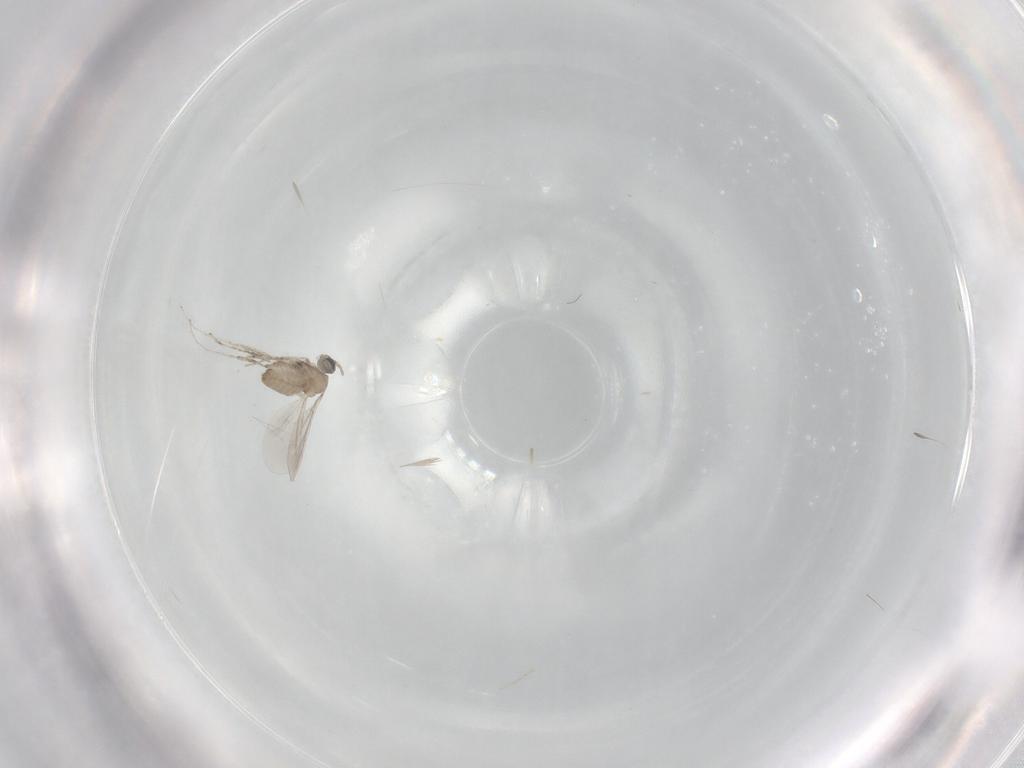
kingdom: Animalia
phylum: Arthropoda
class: Insecta
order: Diptera
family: Cecidomyiidae
